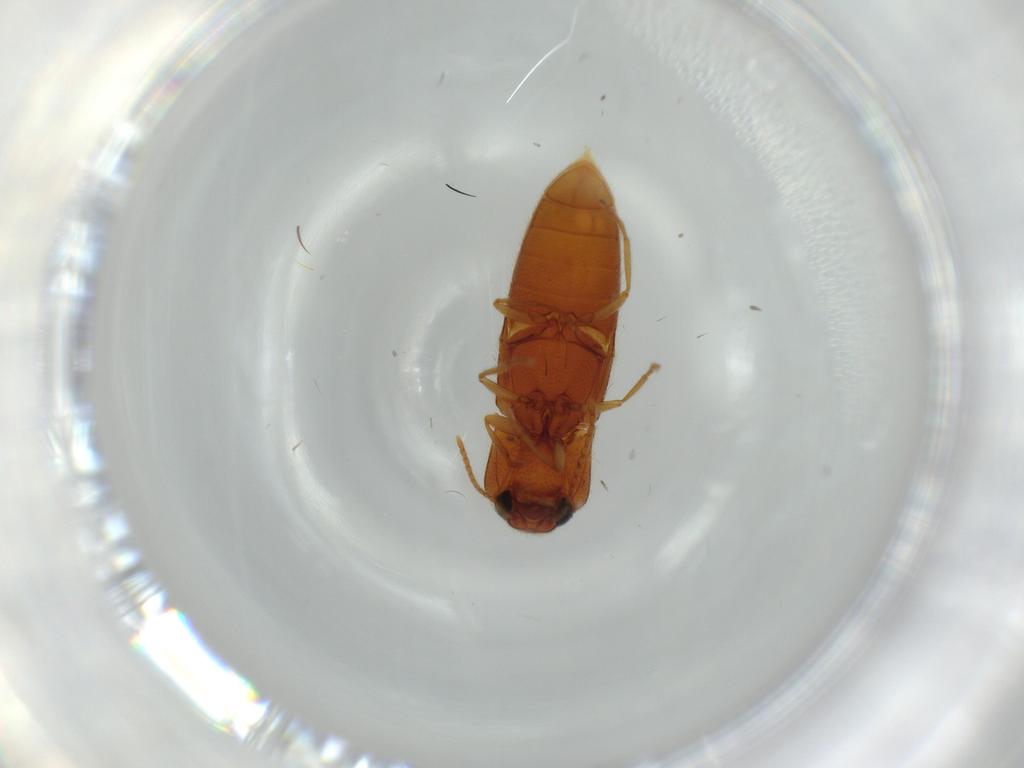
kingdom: Animalia
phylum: Arthropoda
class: Insecta
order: Coleoptera
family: Elateridae
